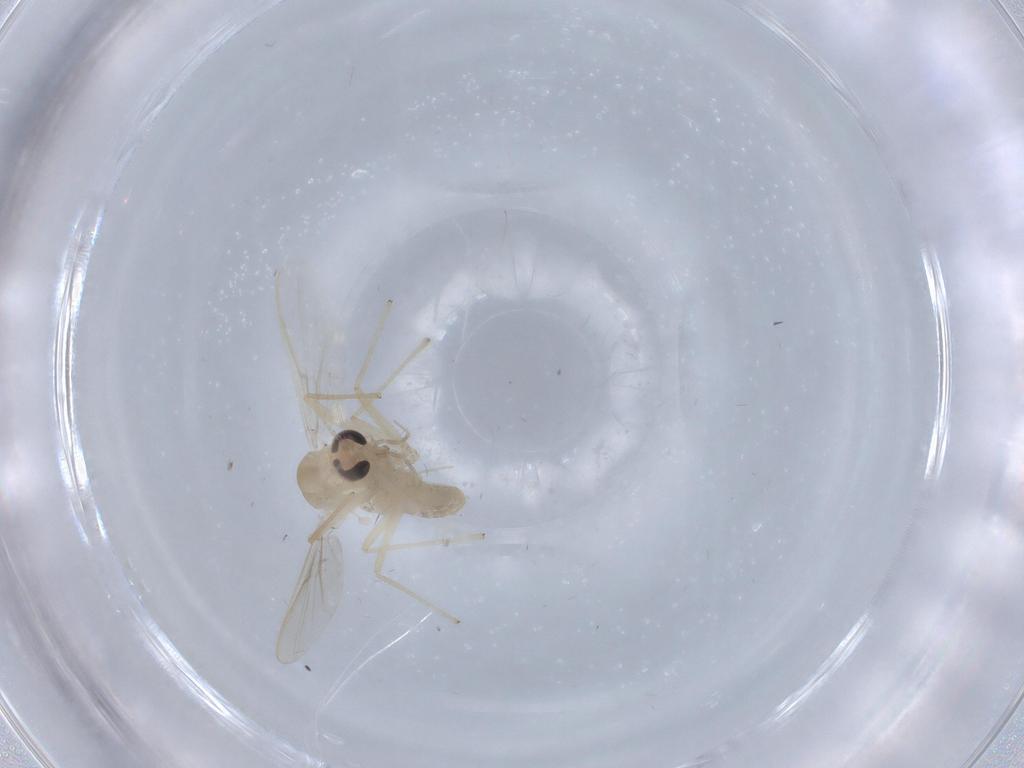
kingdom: Animalia
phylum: Arthropoda
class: Insecta
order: Diptera
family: Chironomidae
